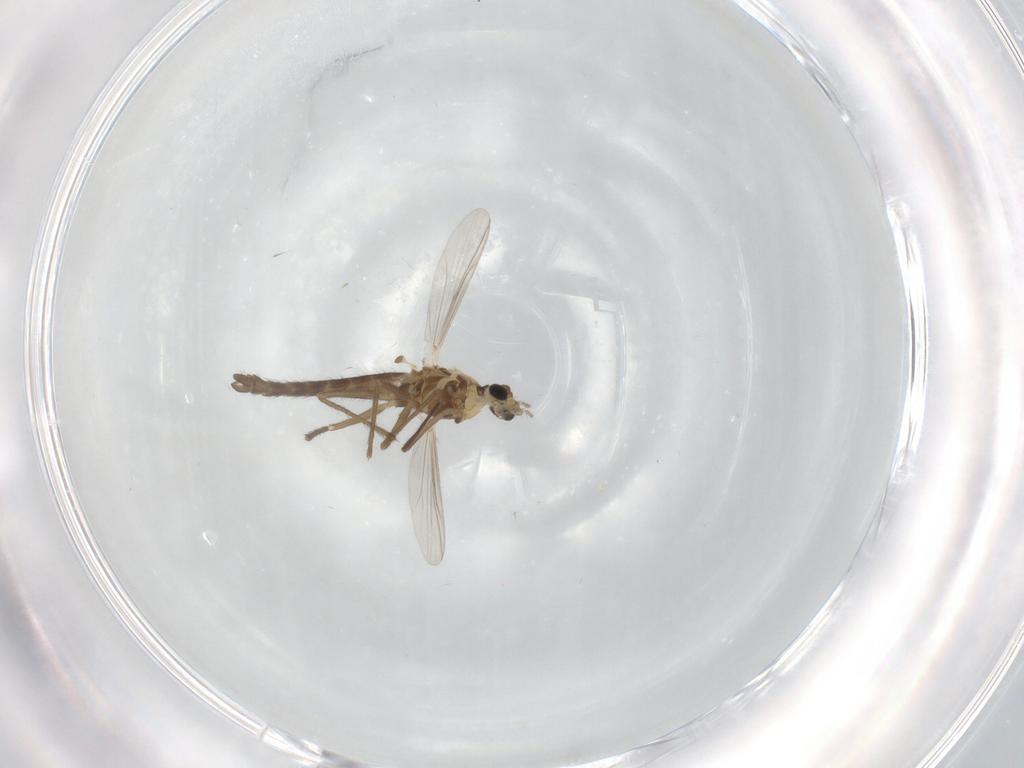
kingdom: Animalia
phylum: Arthropoda
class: Insecta
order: Diptera
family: Chironomidae
